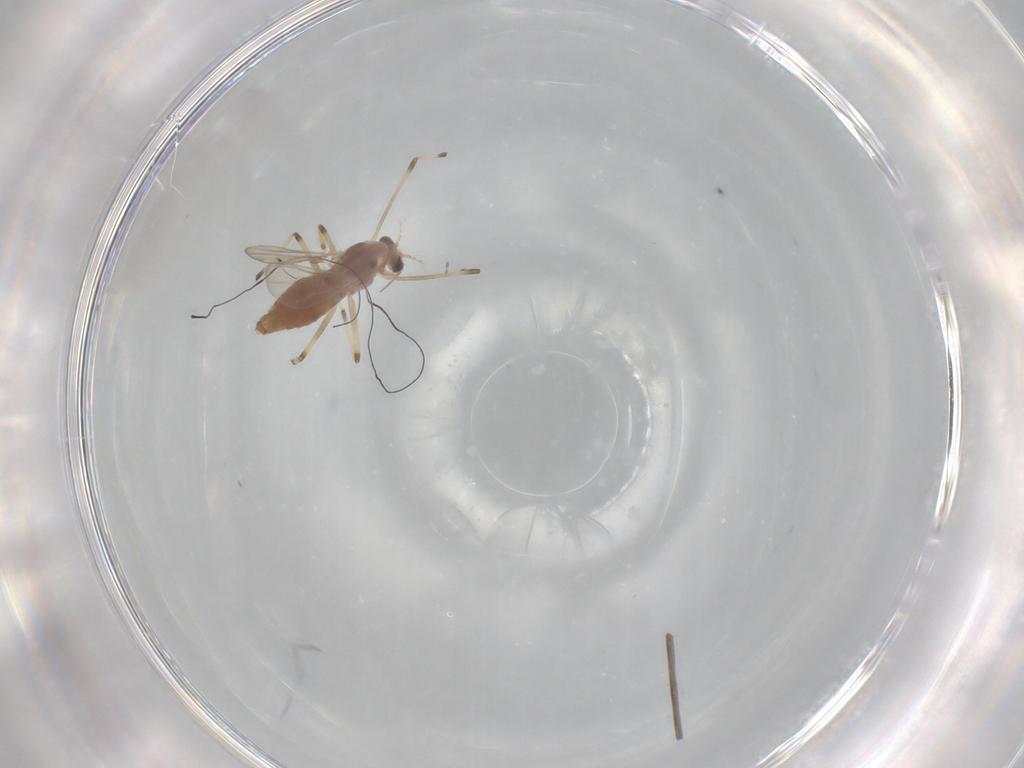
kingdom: Animalia
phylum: Arthropoda
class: Insecta
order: Diptera
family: Chironomidae
